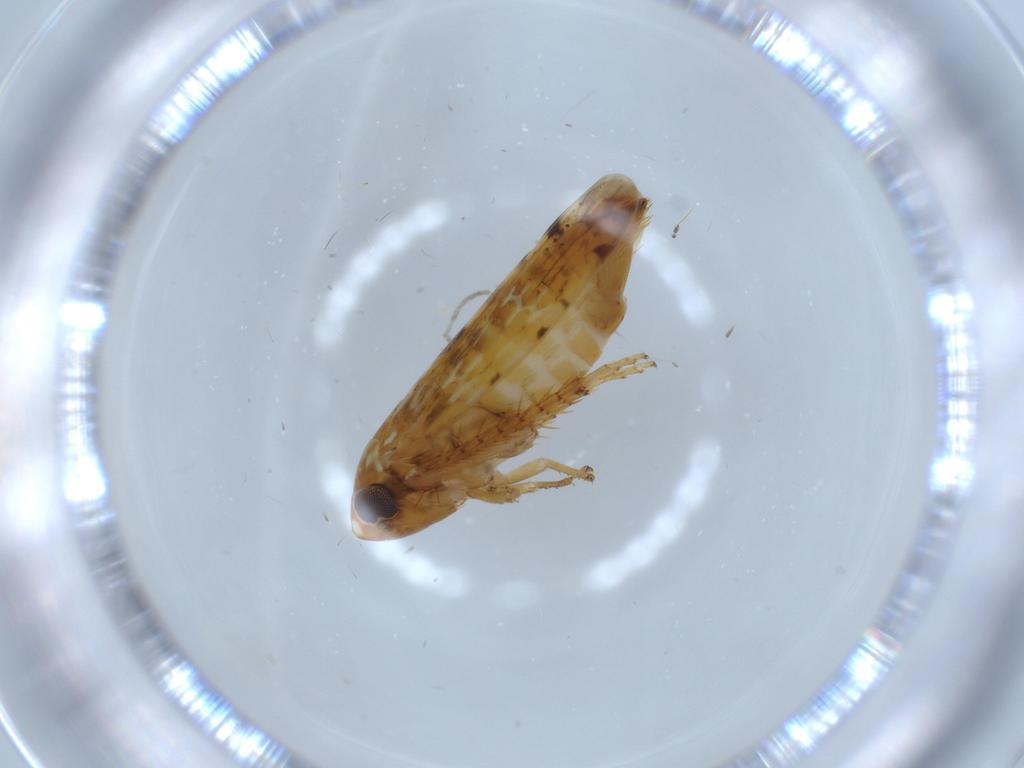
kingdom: Animalia
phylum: Arthropoda
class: Insecta
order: Hemiptera
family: Cicadellidae
